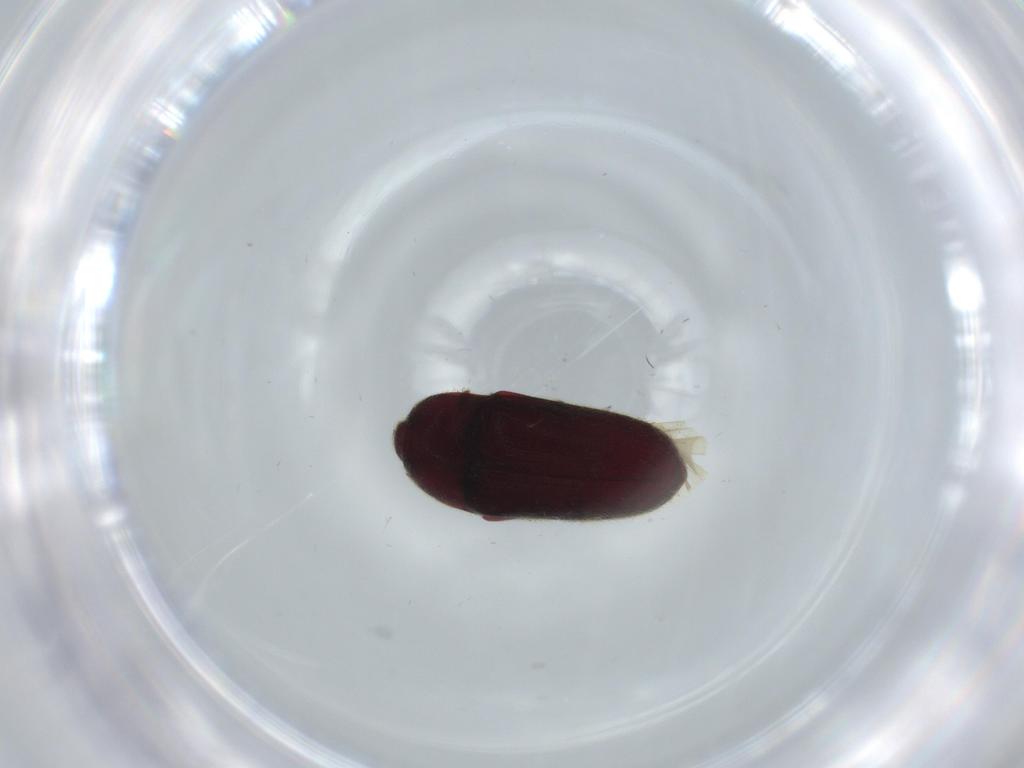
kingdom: Animalia
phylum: Arthropoda
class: Insecta
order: Coleoptera
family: Throscidae
